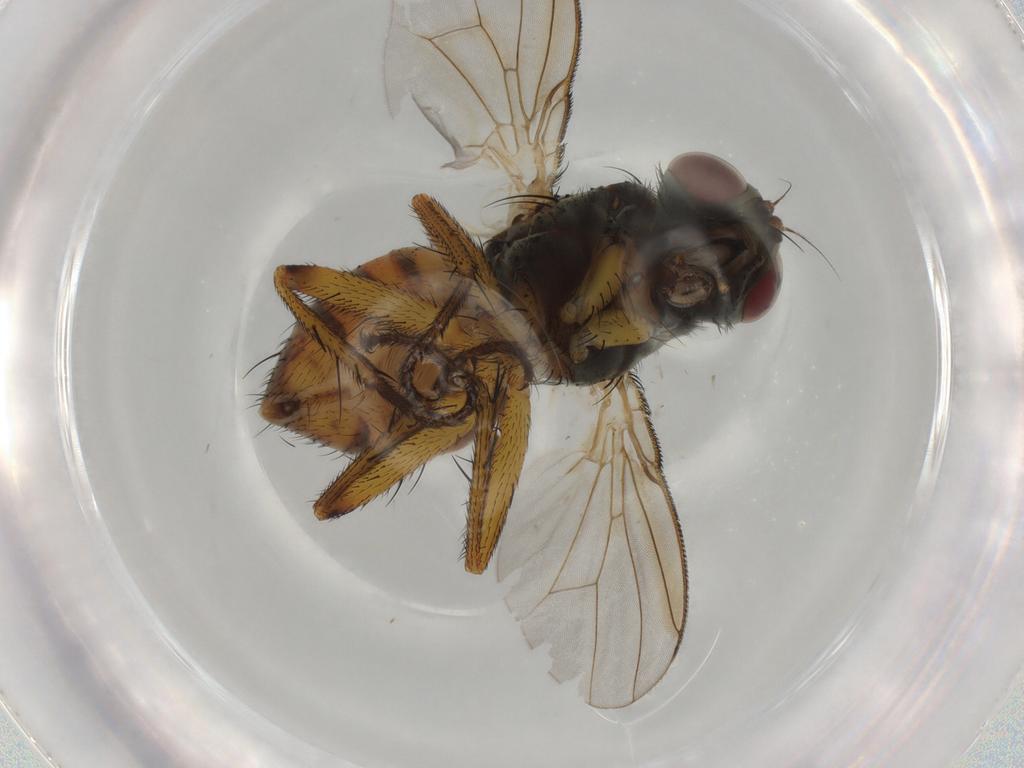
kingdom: Animalia
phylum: Arthropoda
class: Insecta
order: Diptera
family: Muscidae
